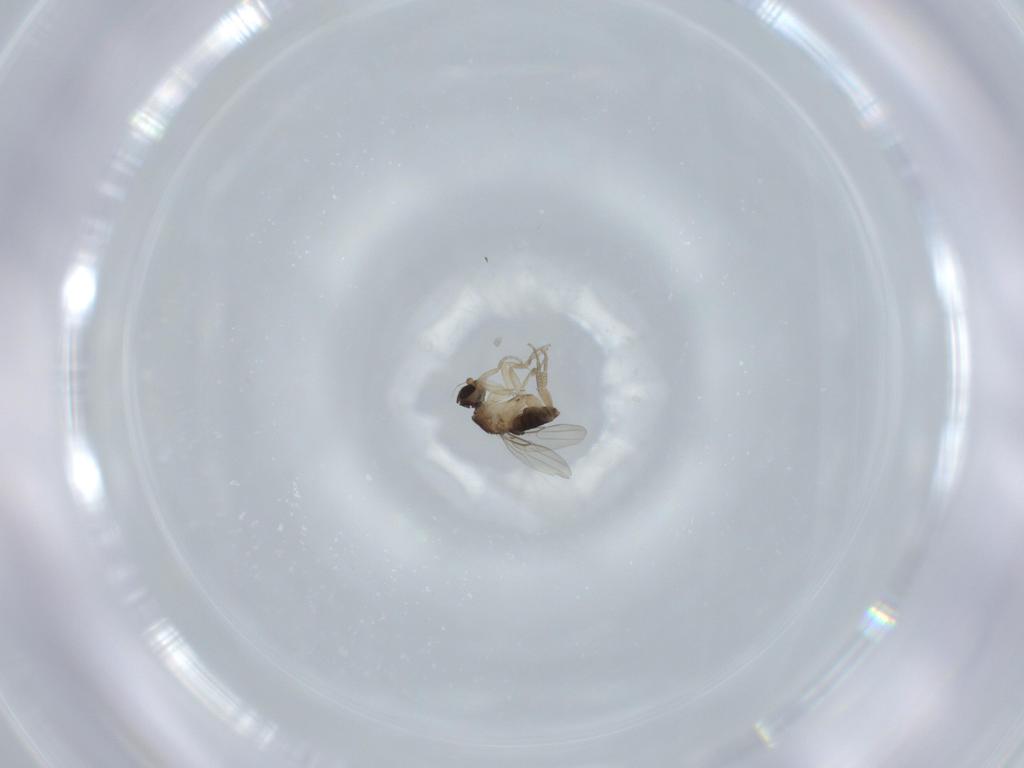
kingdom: Animalia
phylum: Arthropoda
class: Insecta
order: Diptera
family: Phoridae
